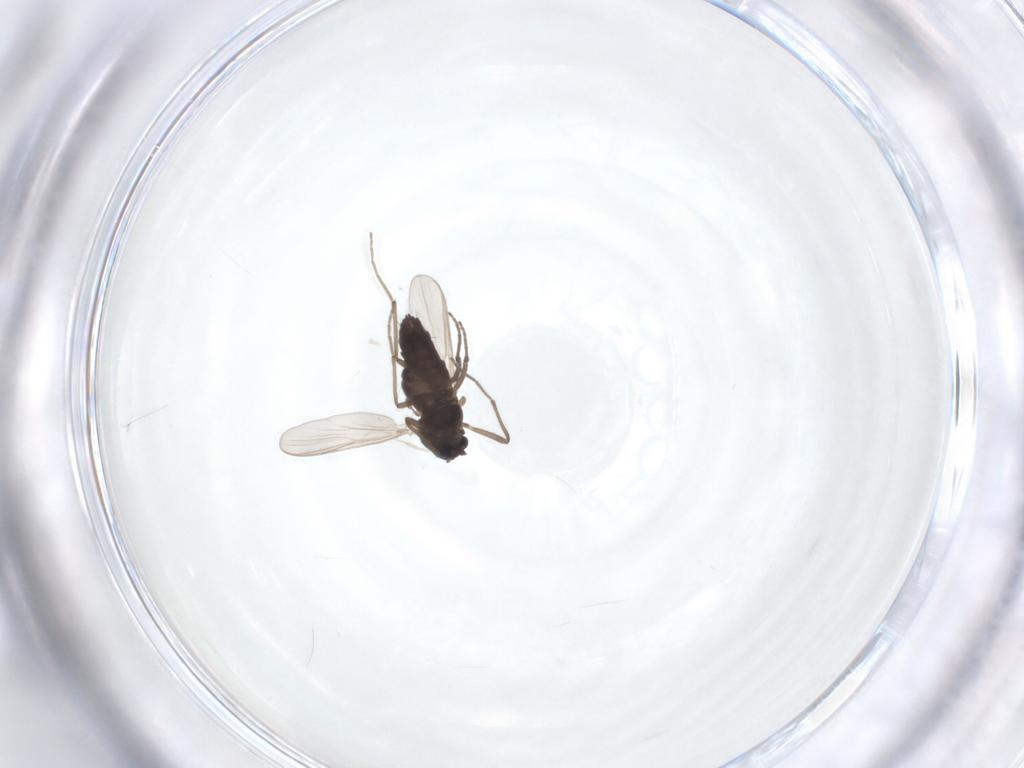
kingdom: Animalia
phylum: Arthropoda
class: Insecta
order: Diptera
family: Chironomidae
